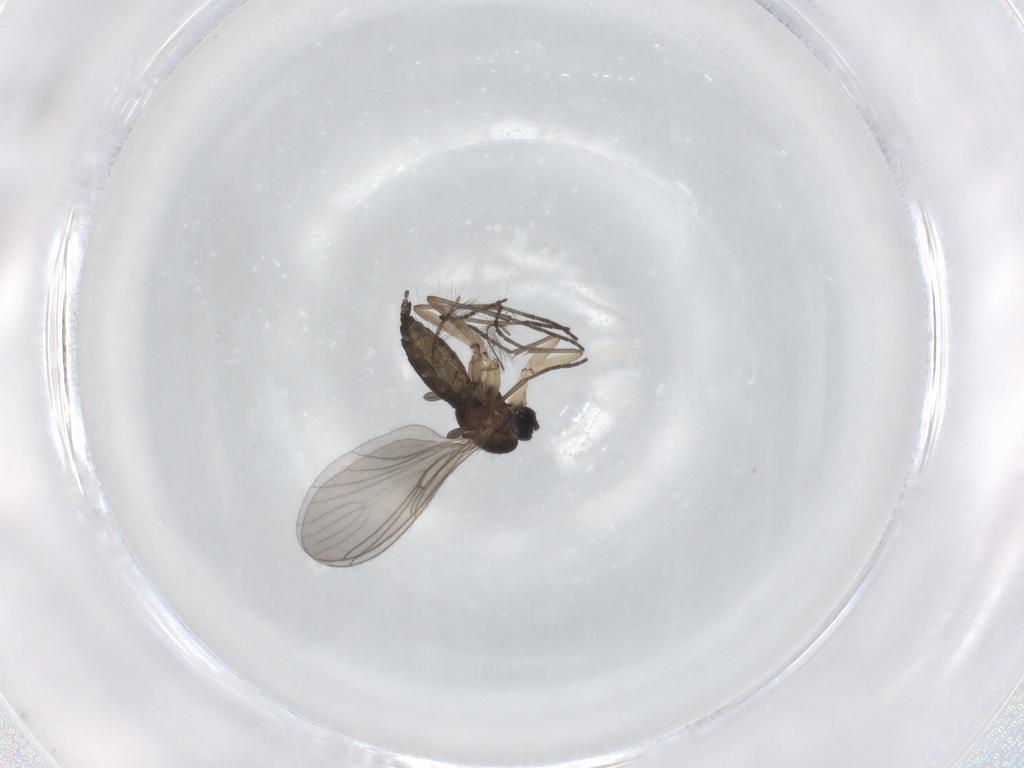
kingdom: Animalia
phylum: Arthropoda
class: Insecta
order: Diptera
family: Chironomidae
